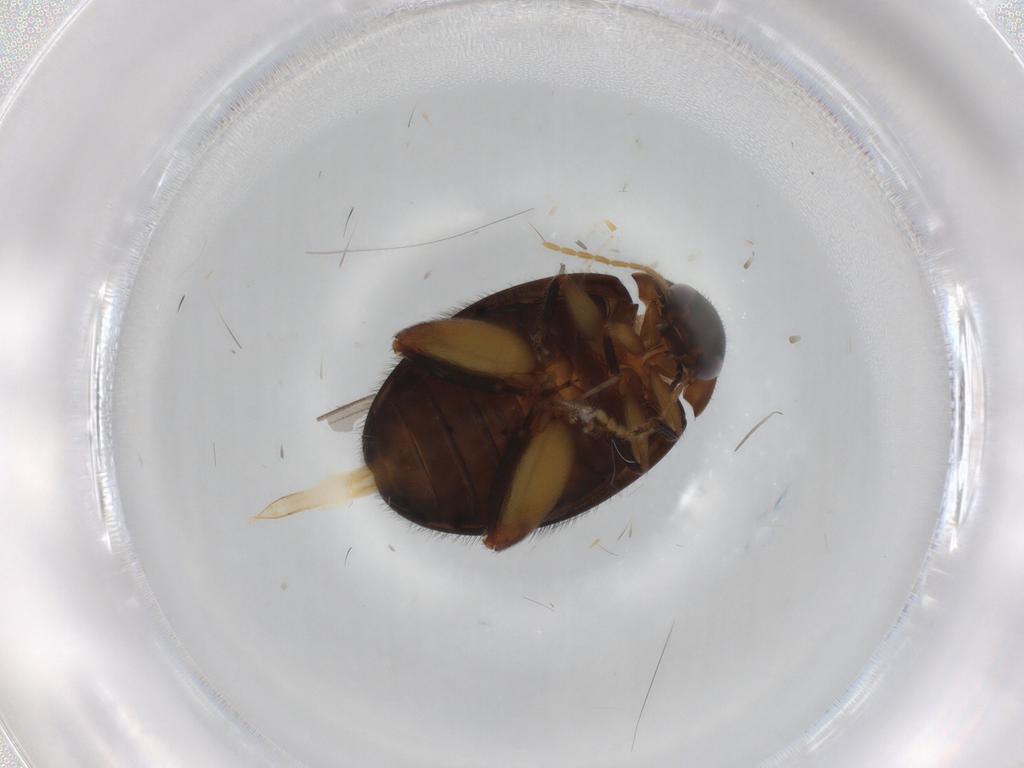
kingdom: Animalia
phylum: Arthropoda
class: Insecta
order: Coleoptera
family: Scirtidae
